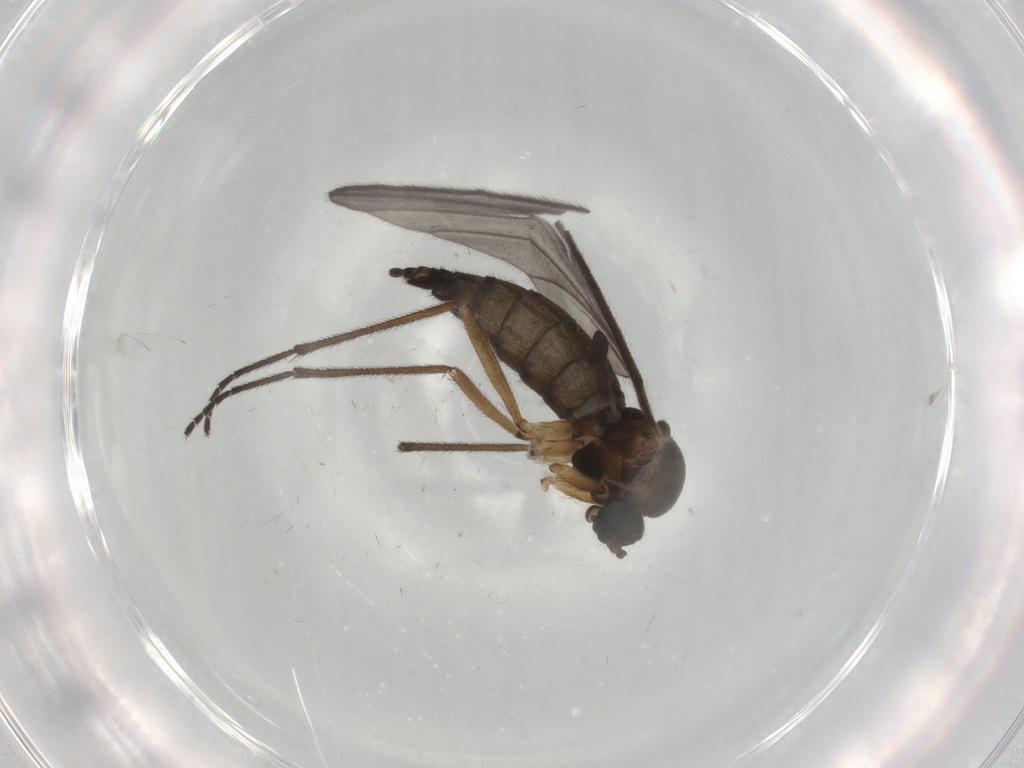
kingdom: Animalia
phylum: Arthropoda
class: Insecta
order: Diptera
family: Sciaridae
